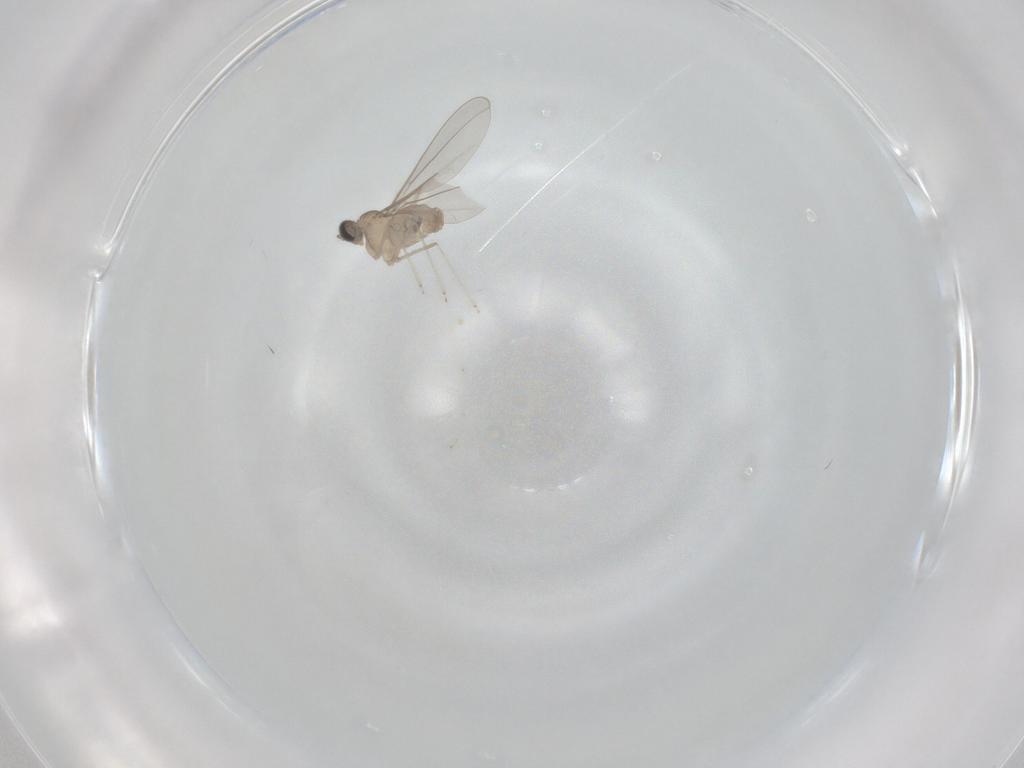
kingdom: Animalia
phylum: Arthropoda
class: Insecta
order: Diptera
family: Cecidomyiidae
